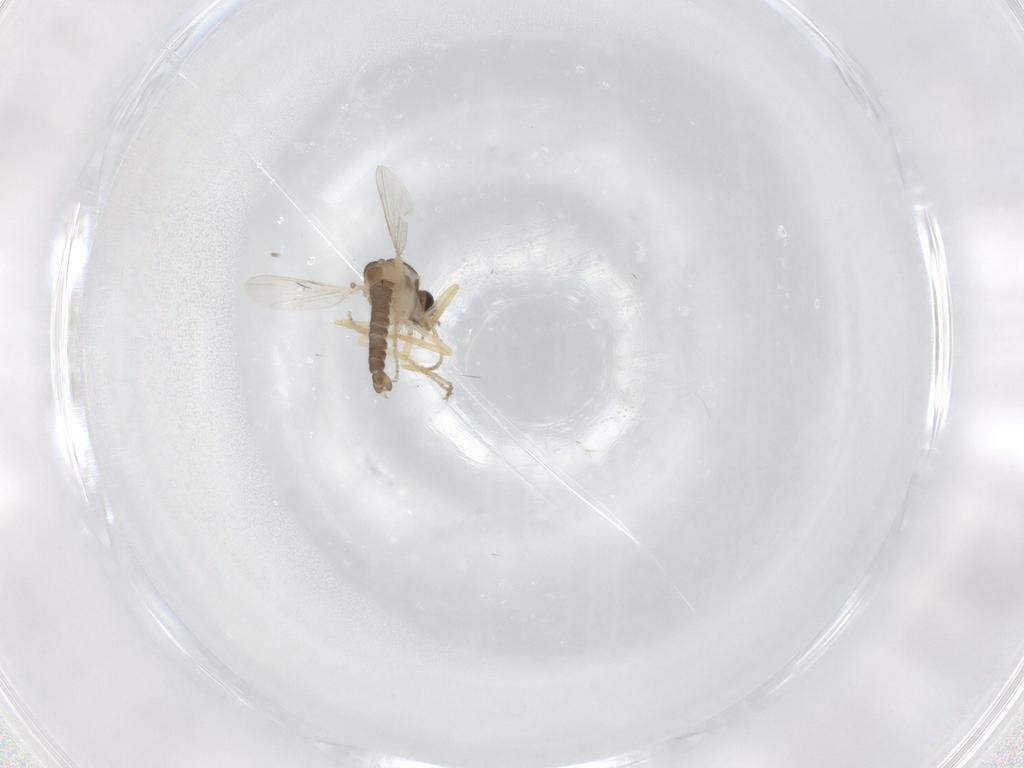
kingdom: Animalia
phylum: Arthropoda
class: Insecta
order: Diptera
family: Ceratopogonidae
